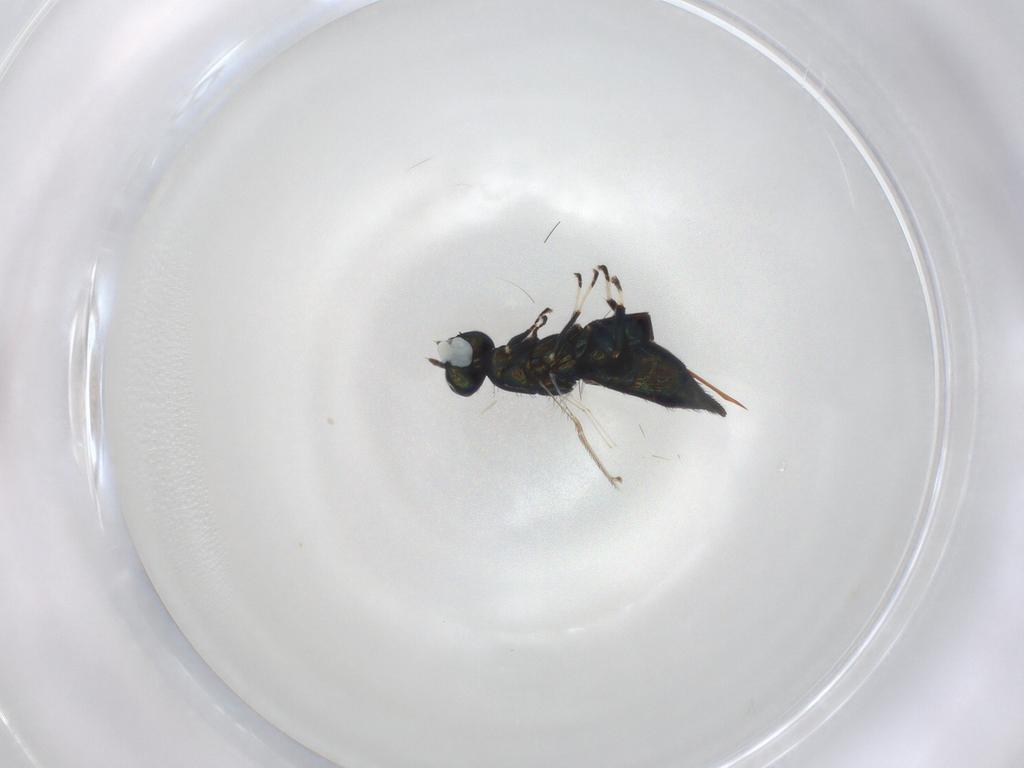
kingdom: Animalia
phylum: Arthropoda
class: Insecta
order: Hymenoptera
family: Eulophidae
